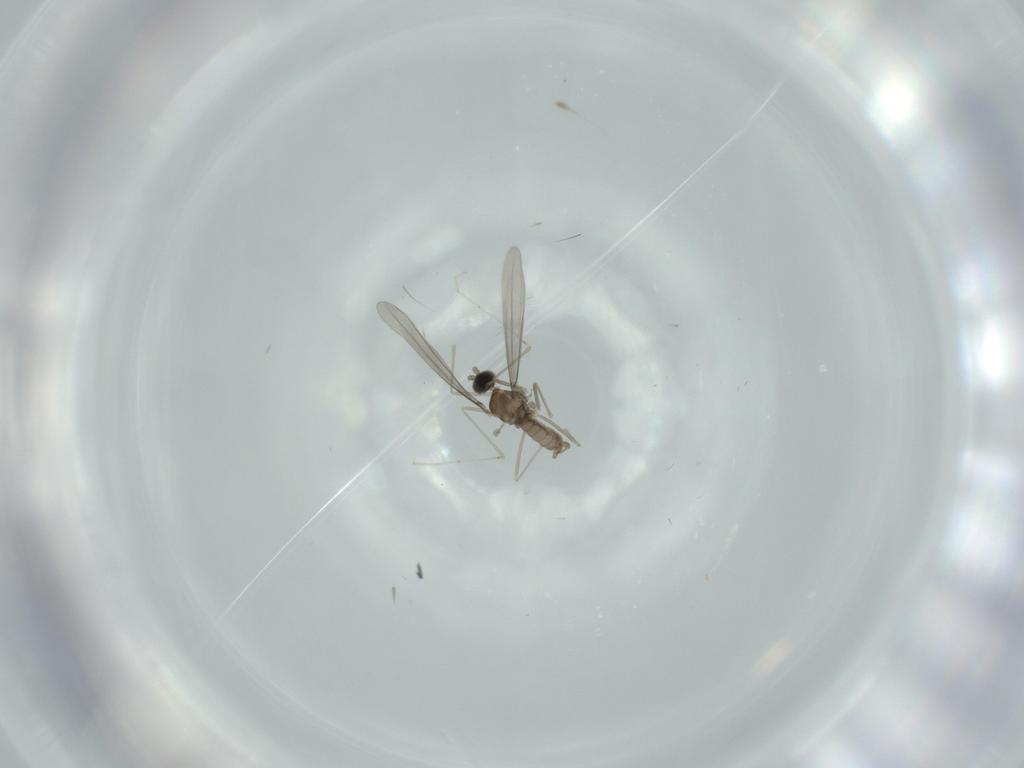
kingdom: Animalia
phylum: Arthropoda
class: Insecta
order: Diptera
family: Cecidomyiidae
